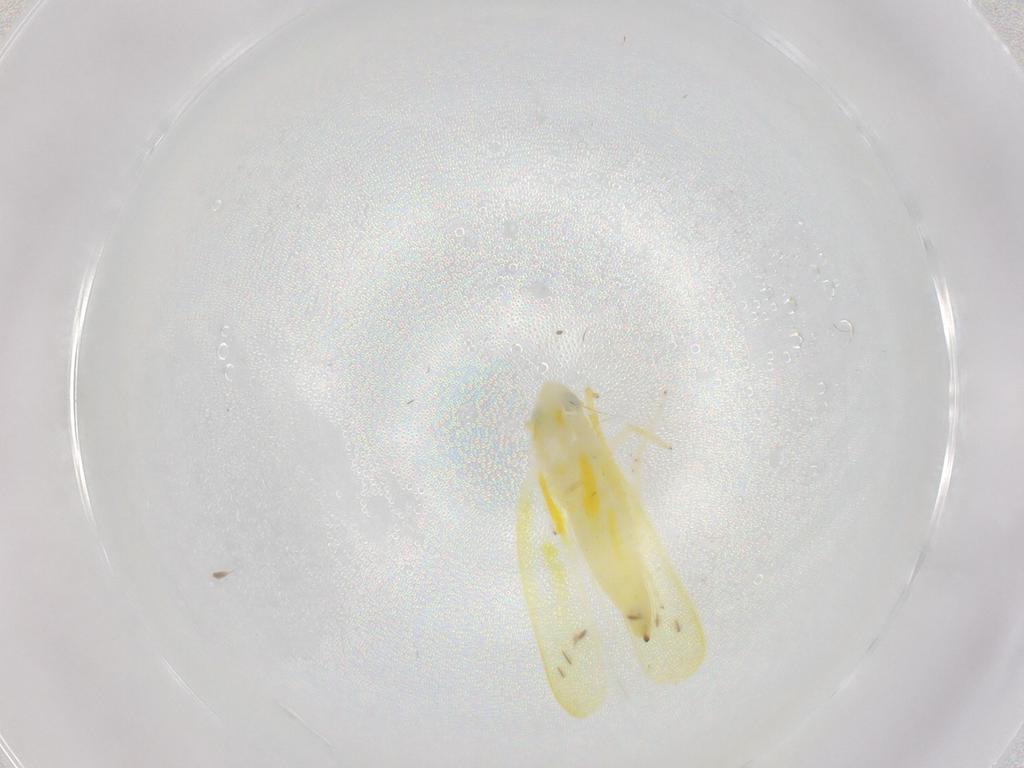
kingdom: Animalia
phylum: Arthropoda
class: Insecta
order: Hemiptera
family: Cicadellidae
